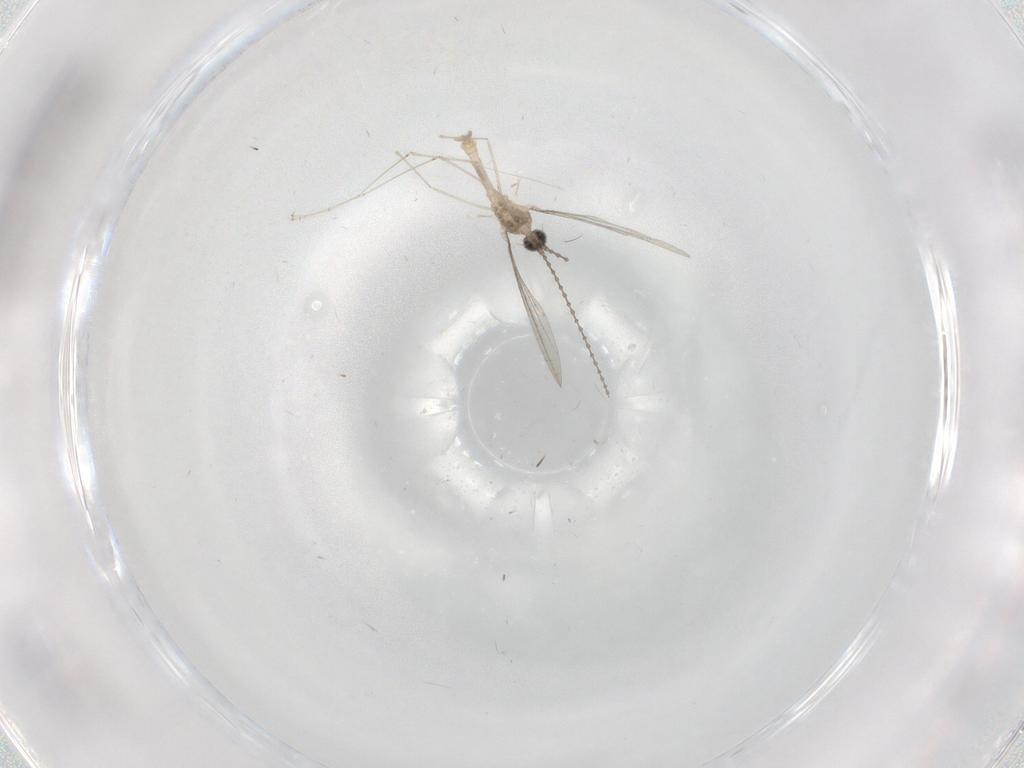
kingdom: Animalia
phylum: Arthropoda
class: Insecta
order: Diptera
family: Cecidomyiidae
